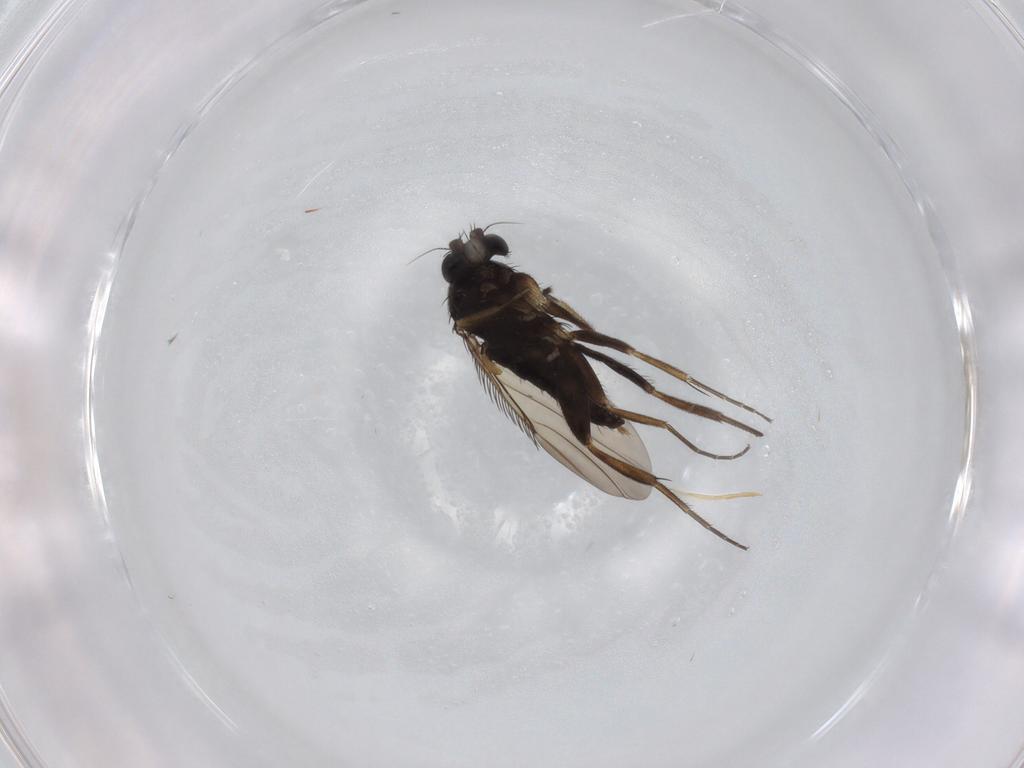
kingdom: Animalia
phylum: Arthropoda
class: Insecta
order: Diptera
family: Phoridae
